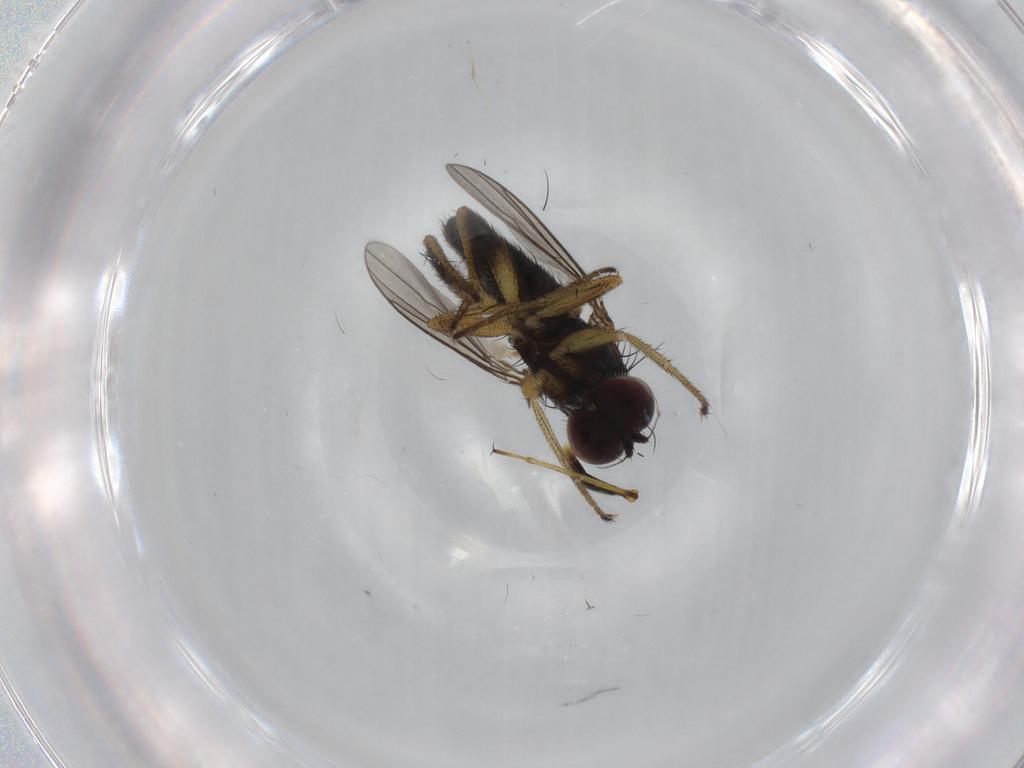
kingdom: Animalia
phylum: Arthropoda
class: Insecta
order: Diptera
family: Dolichopodidae
